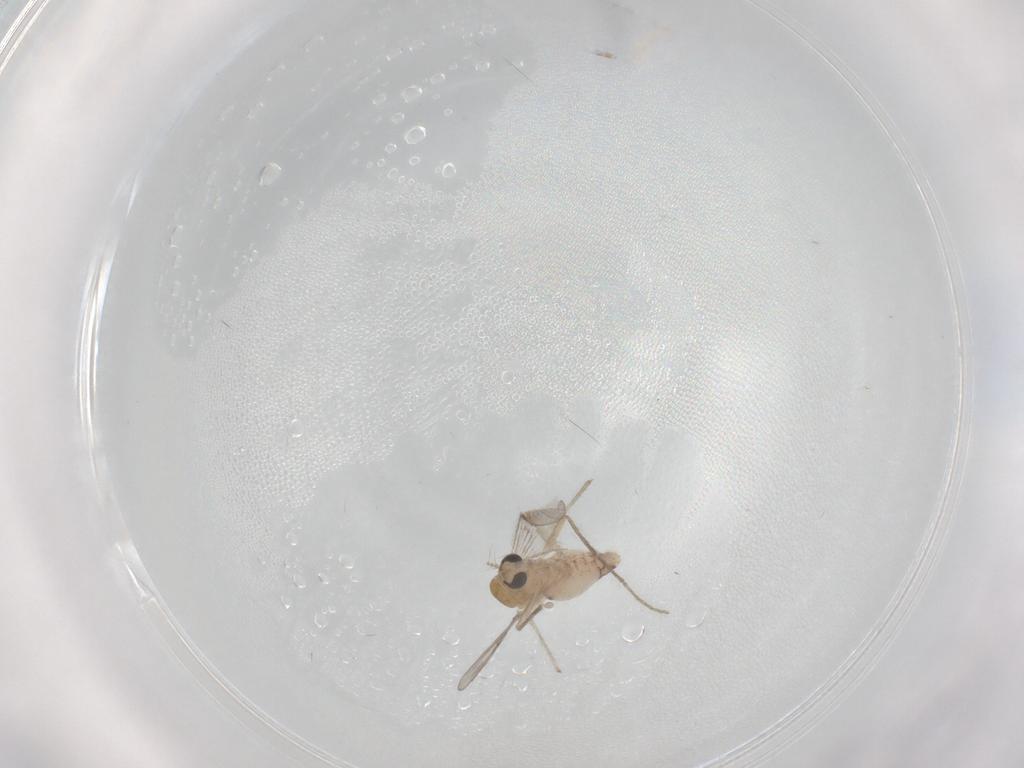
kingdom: Animalia
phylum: Arthropoda
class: Insecta
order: Diptera
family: Chironomidae
